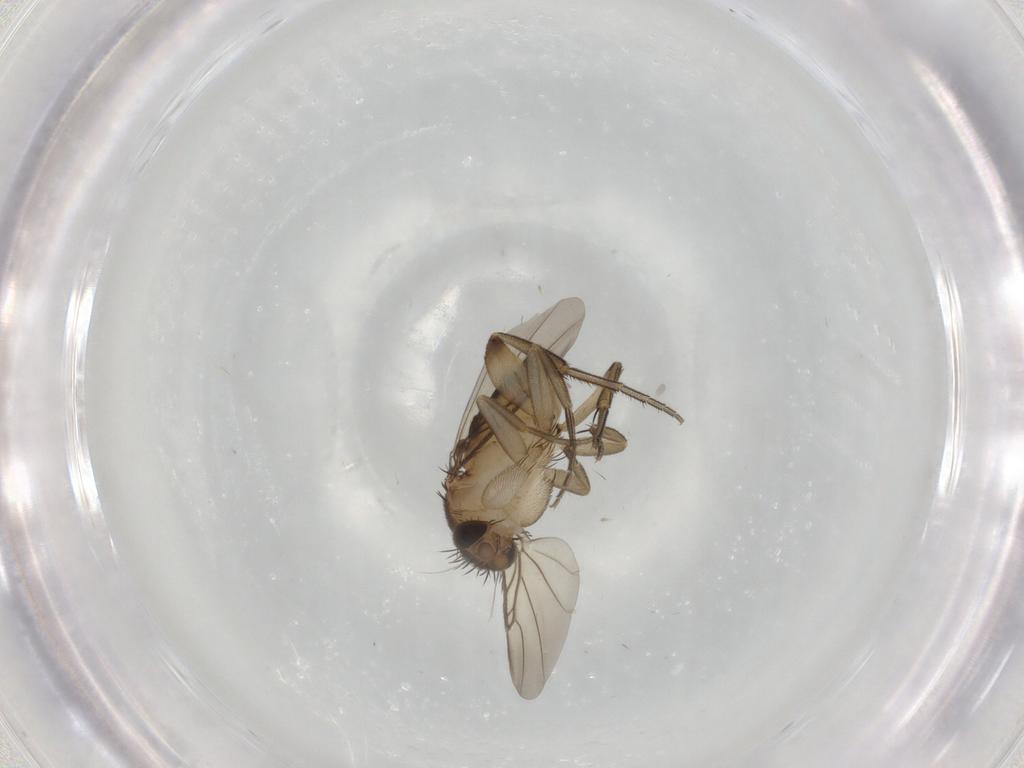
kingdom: Animalia
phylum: Arthropoda
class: Insecta
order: Diptera
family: Phoridae
